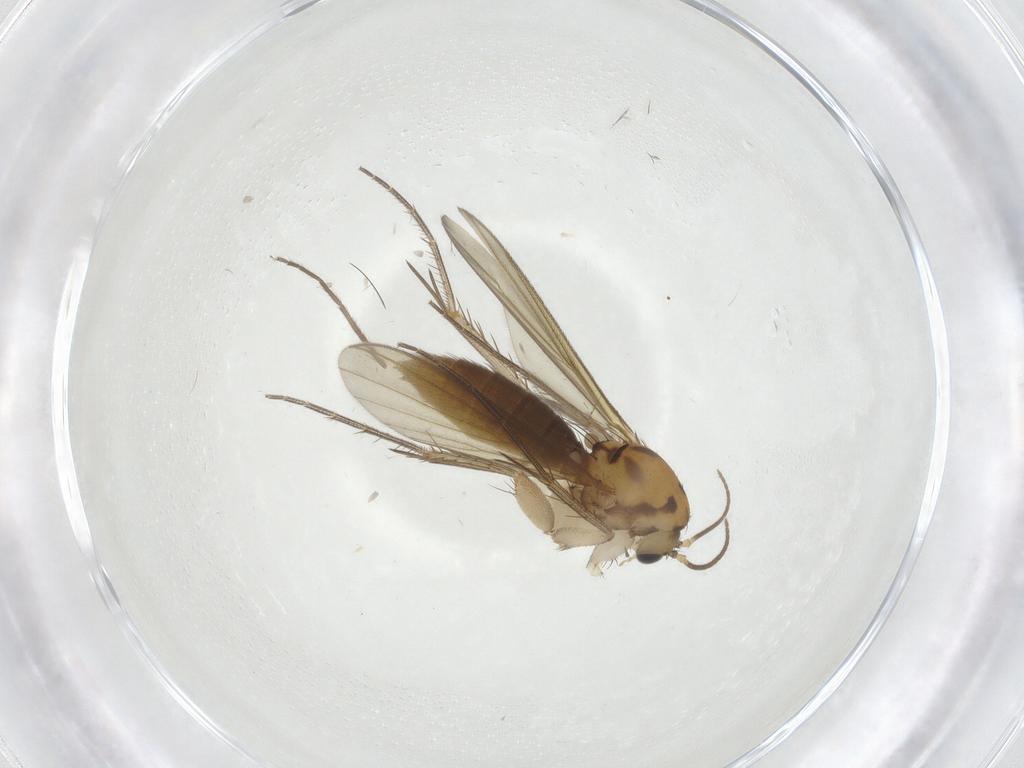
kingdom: Animalia
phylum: Arthropoda
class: Insecta
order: Diptera
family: Mycetophilidae
